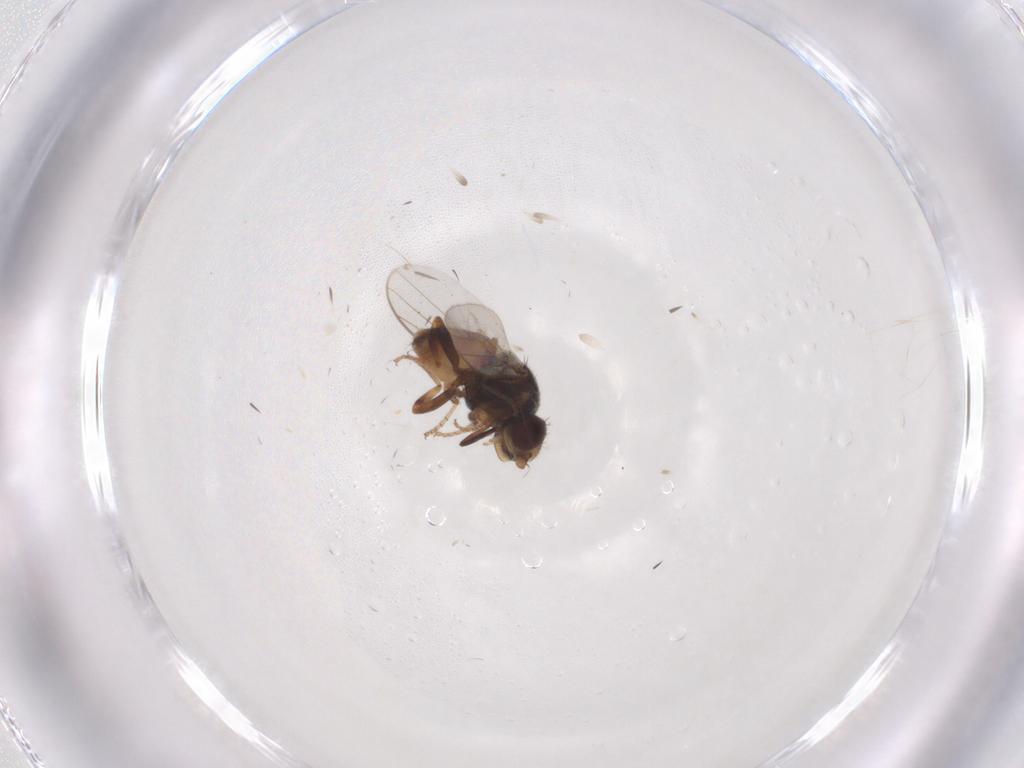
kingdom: Animalia
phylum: Arthropoda
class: Insecta
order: Diptera
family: Chloropidae
